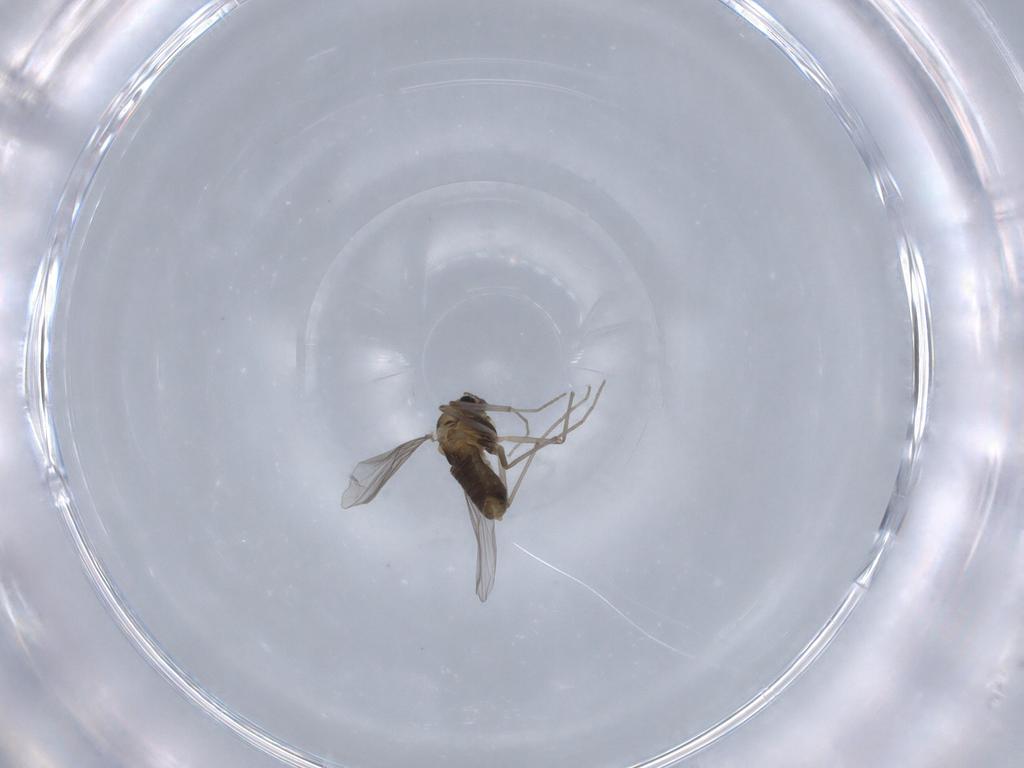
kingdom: Animalia
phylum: Arthropoda
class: Insecta
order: Diptera
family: Chironomidae
